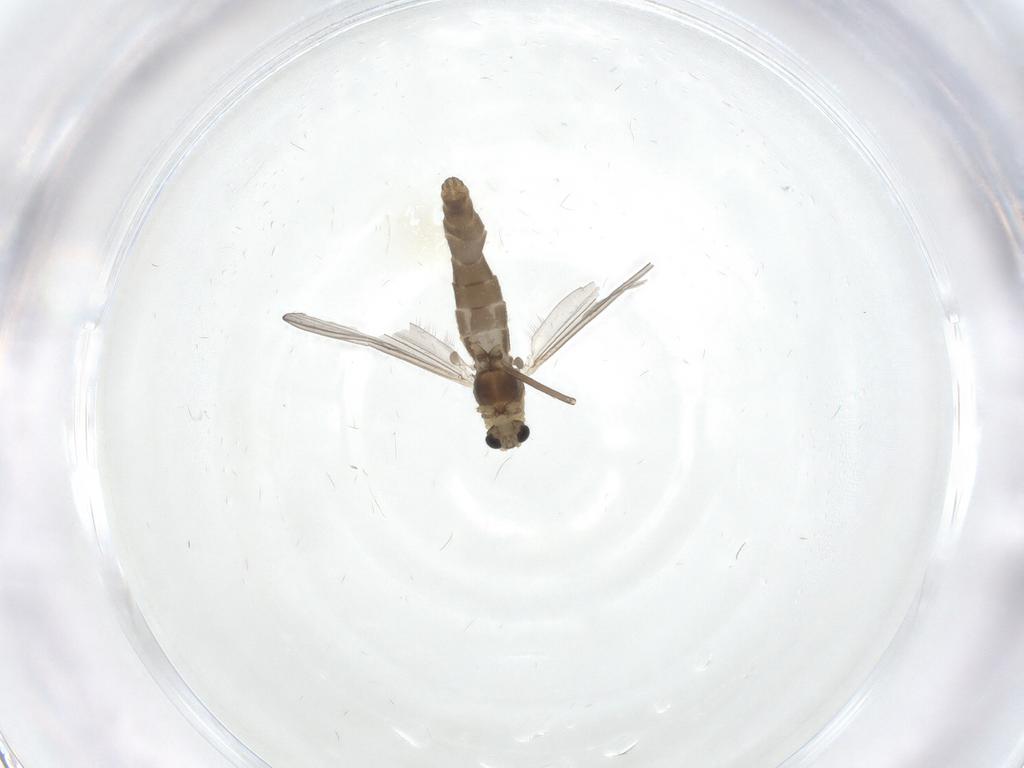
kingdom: Animalia
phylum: Arthropoda
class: Insecta
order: Diptera
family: Chironomidae
